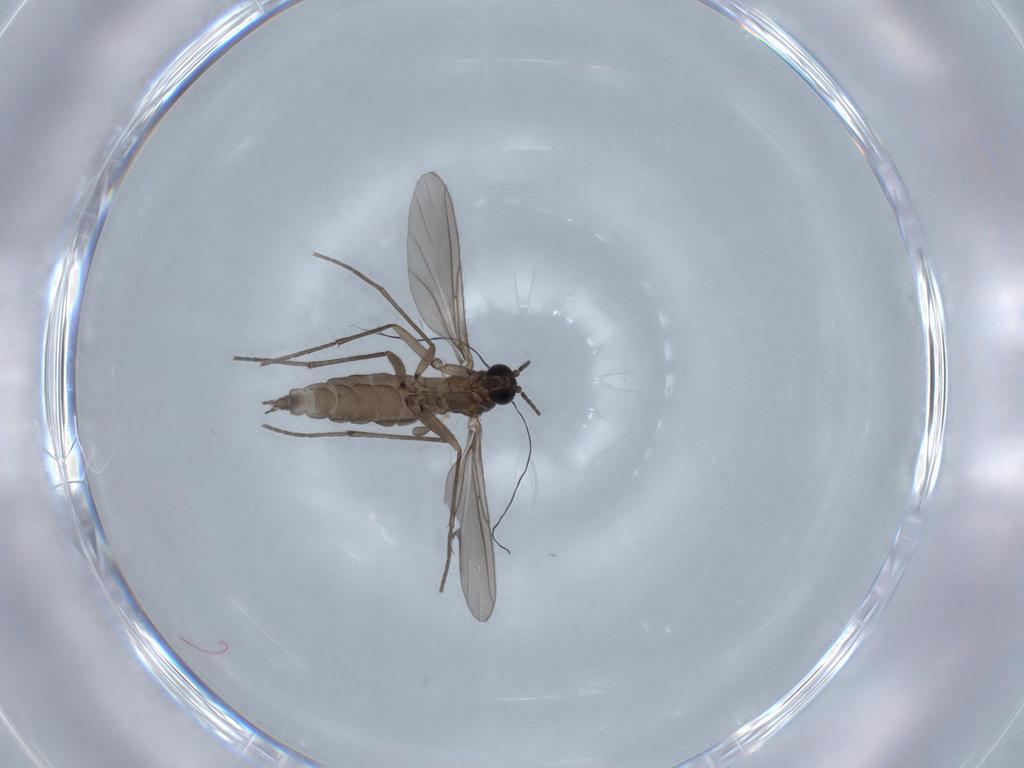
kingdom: Animalia
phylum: Arthropoda
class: Insecta
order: Diptera
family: Sciaridae
